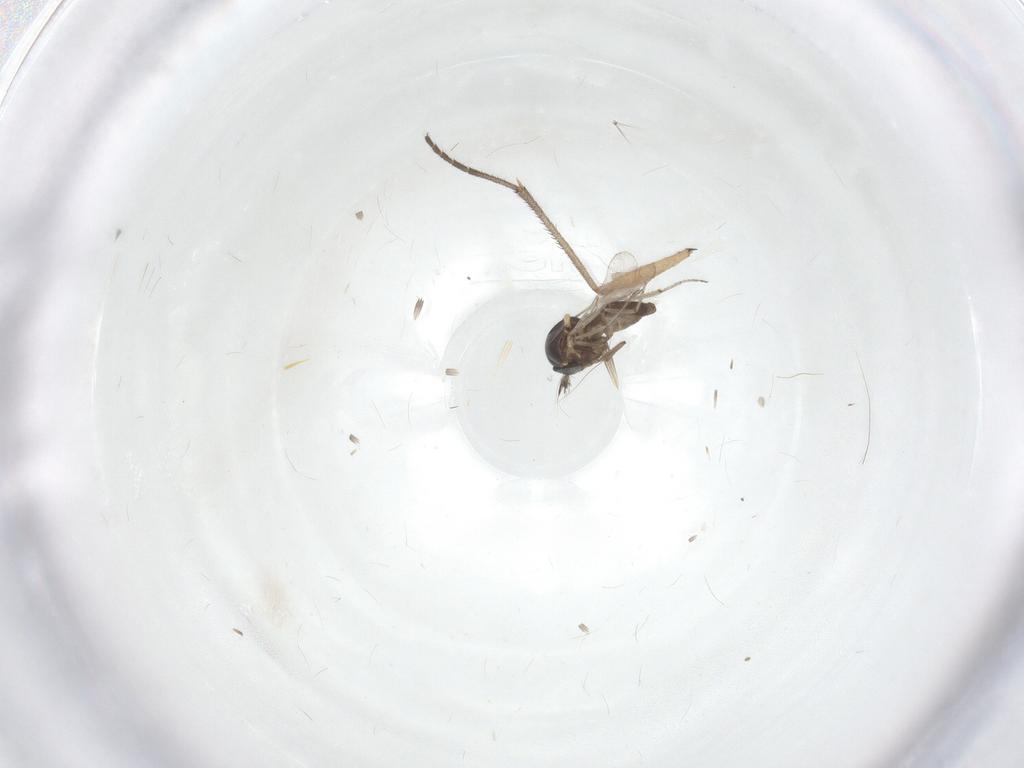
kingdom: Animalia
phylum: Arthropoda
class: Insecta
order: Diptera
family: Ceratopogonidae
